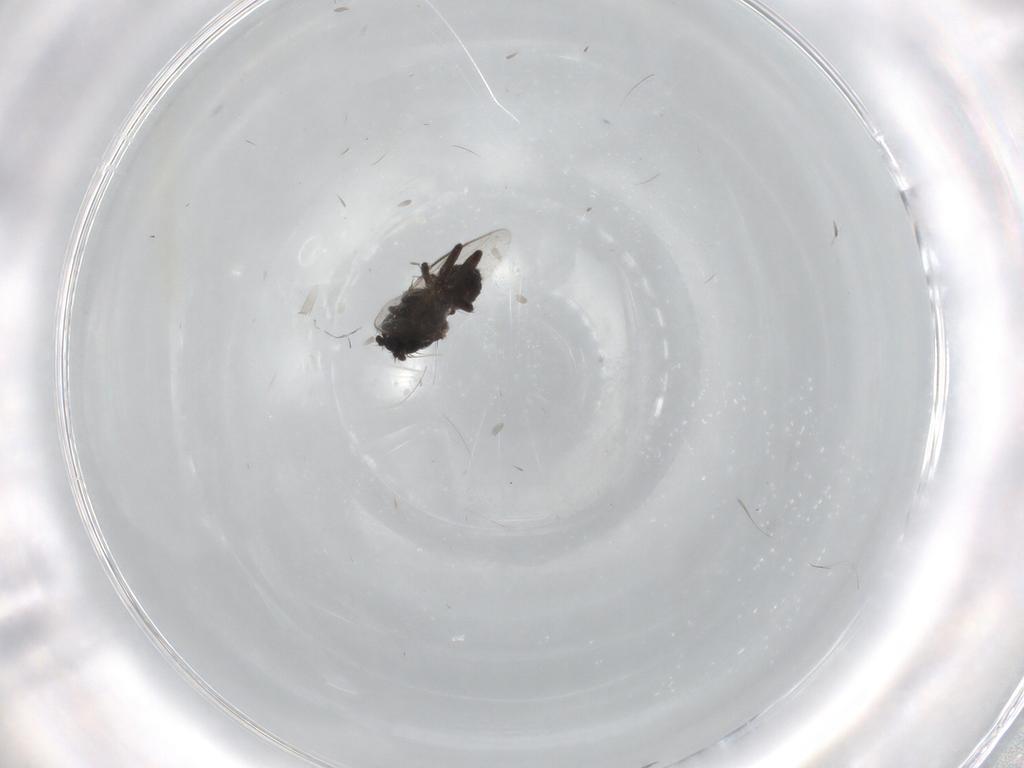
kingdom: Animalia
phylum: Arthropoda
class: Insecta
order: Diptera
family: Sphaeroceridae
